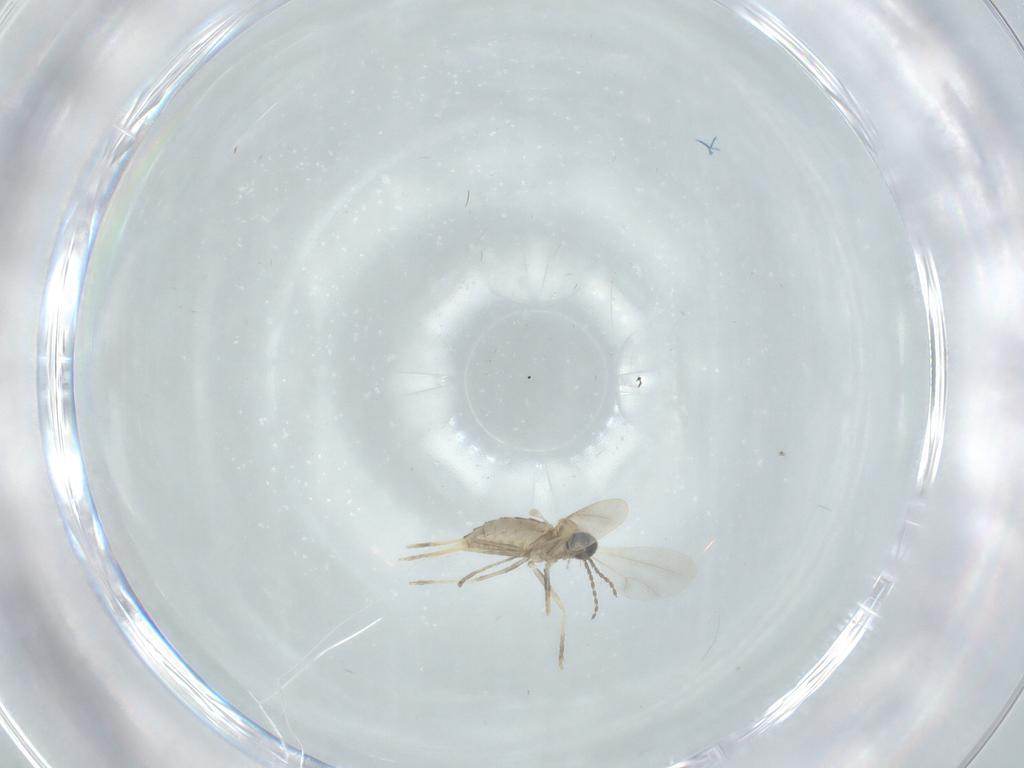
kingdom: Animalia
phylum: Arthropoda
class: Insecta
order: Diptera
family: Cecidomyiidae
